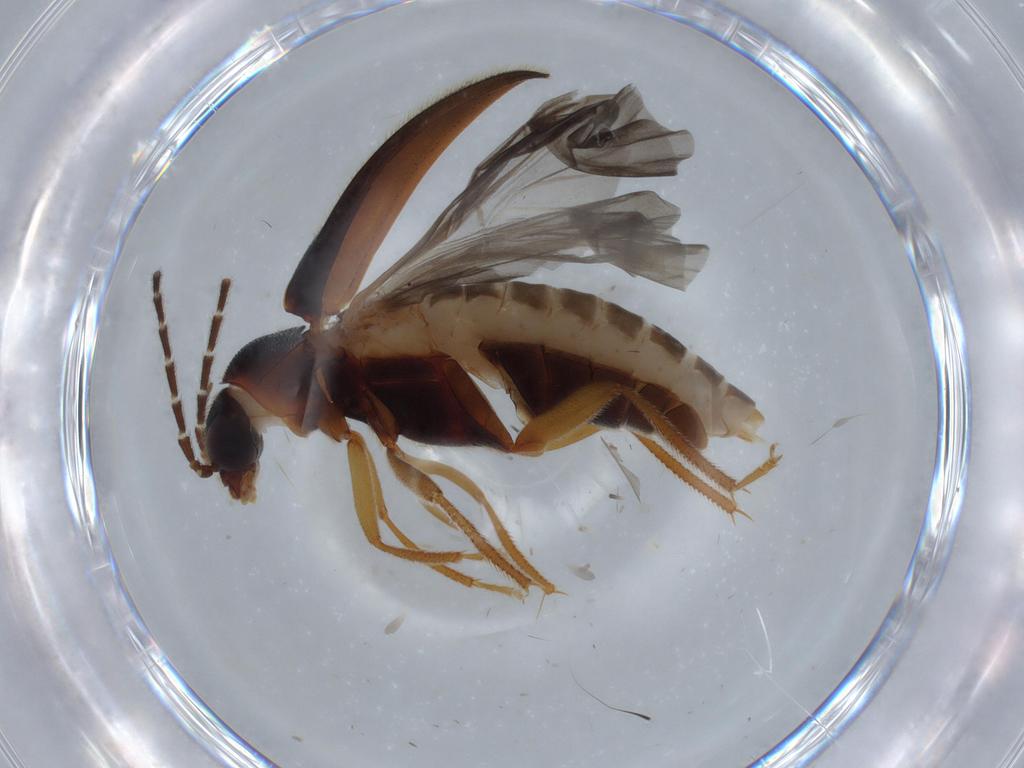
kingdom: Animalia
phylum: Arthropoda
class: Insecta
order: Coleoptera
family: Ptilodactylidae
